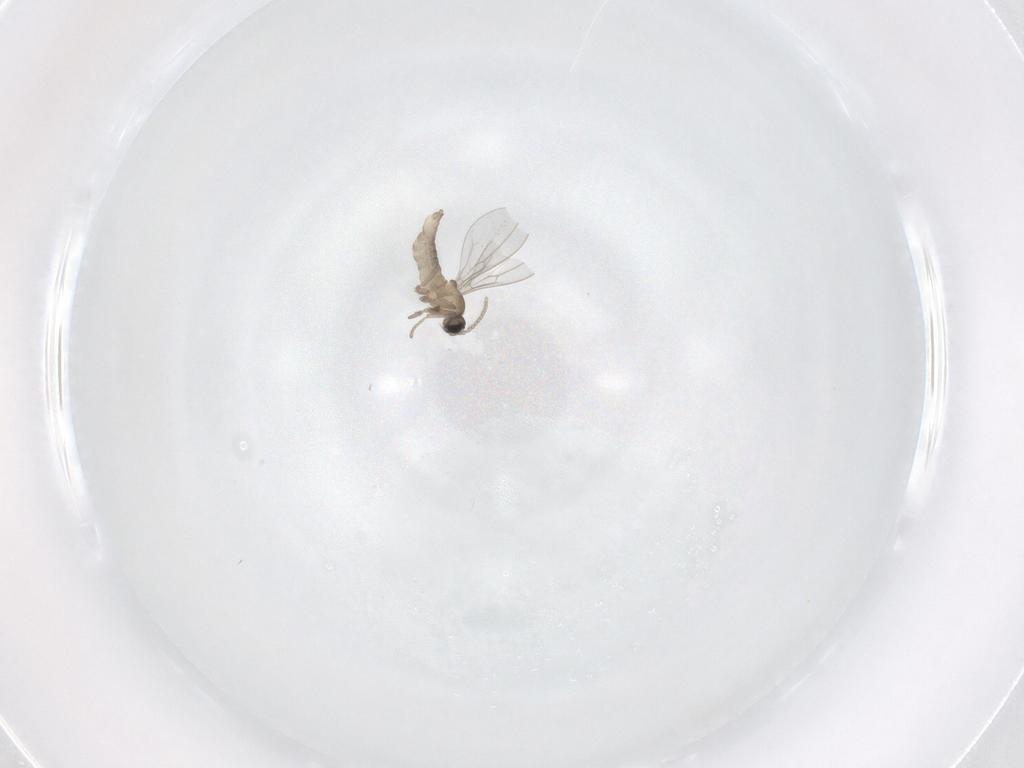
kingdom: Animalia
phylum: Arthropoda
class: Insecta
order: Diptera
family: Cecidomyiidae
